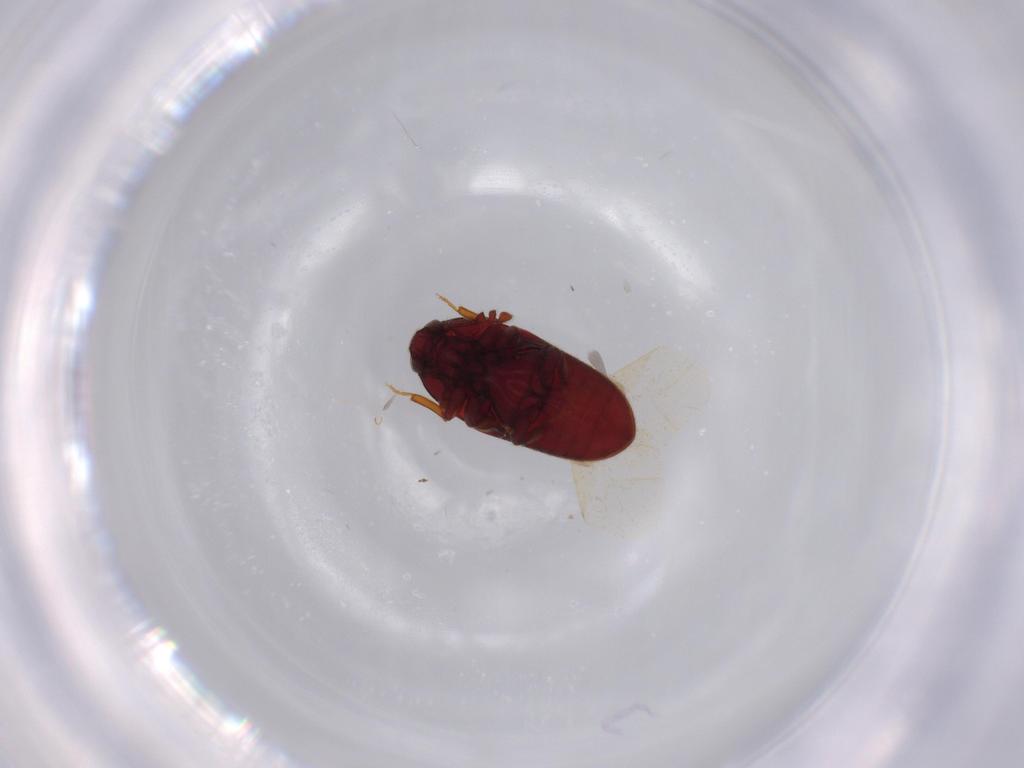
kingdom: Animalia
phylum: Arthropoda
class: Insecta
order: Coleoptera
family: Throscidae
